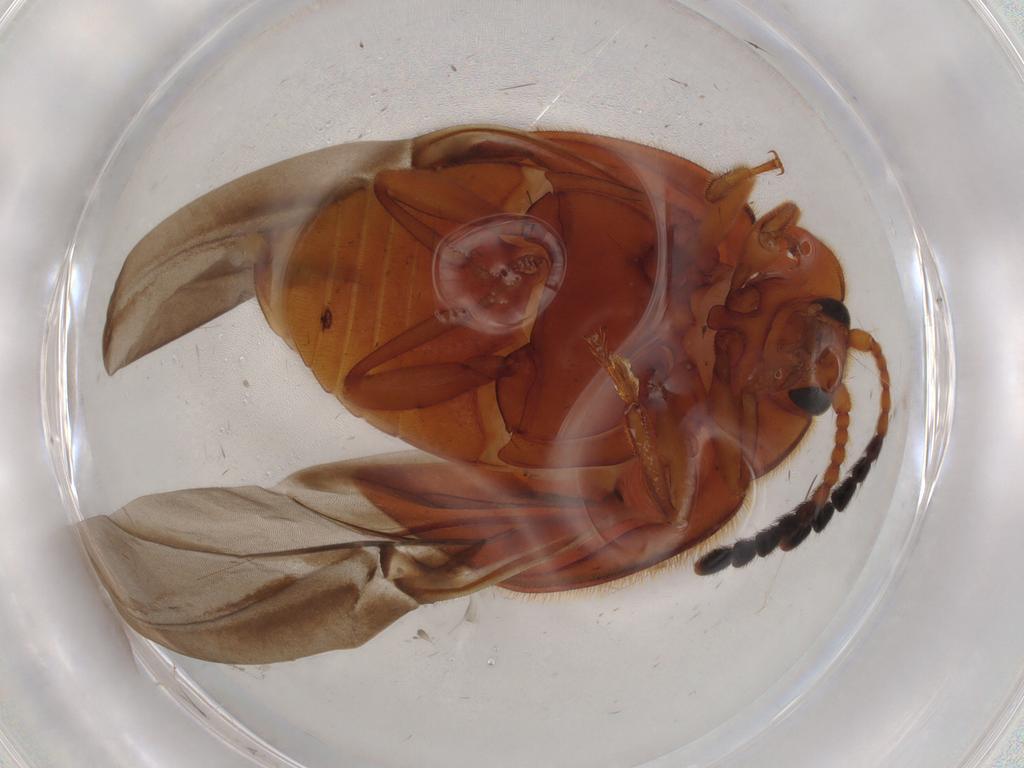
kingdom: Animalia
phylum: Arthropoda
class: Insecta
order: Coleoptera
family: Endomychidae
